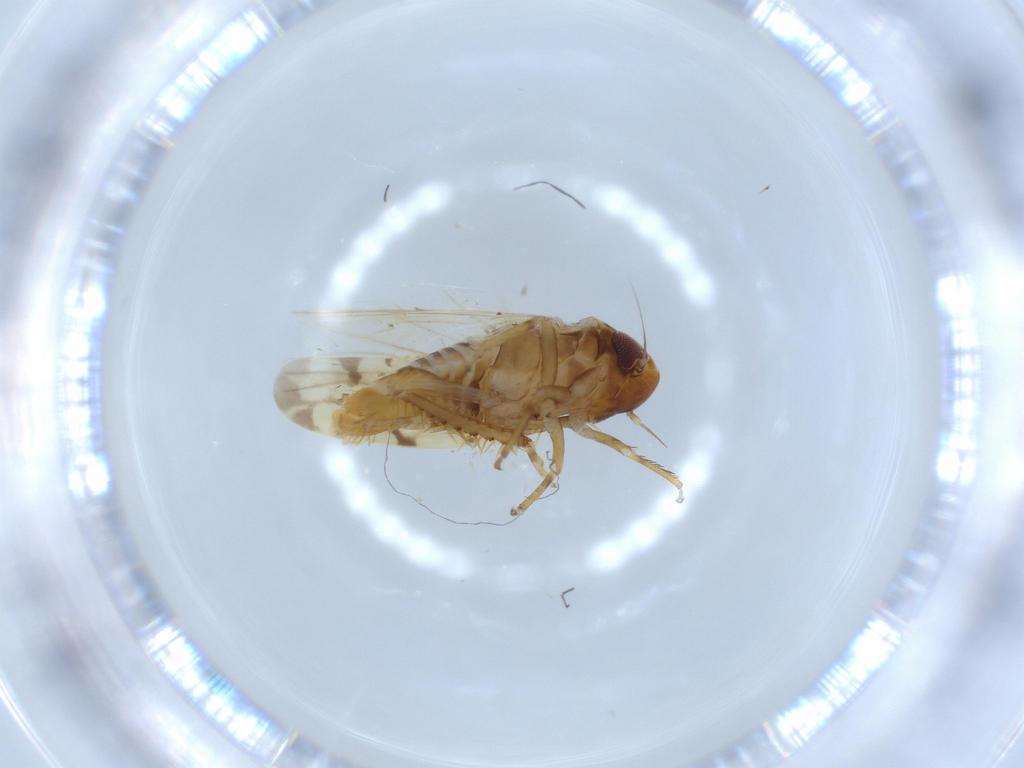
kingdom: Animalia
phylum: Arthropoda
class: Insecta
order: Hemiptera
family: Cicadellidae
